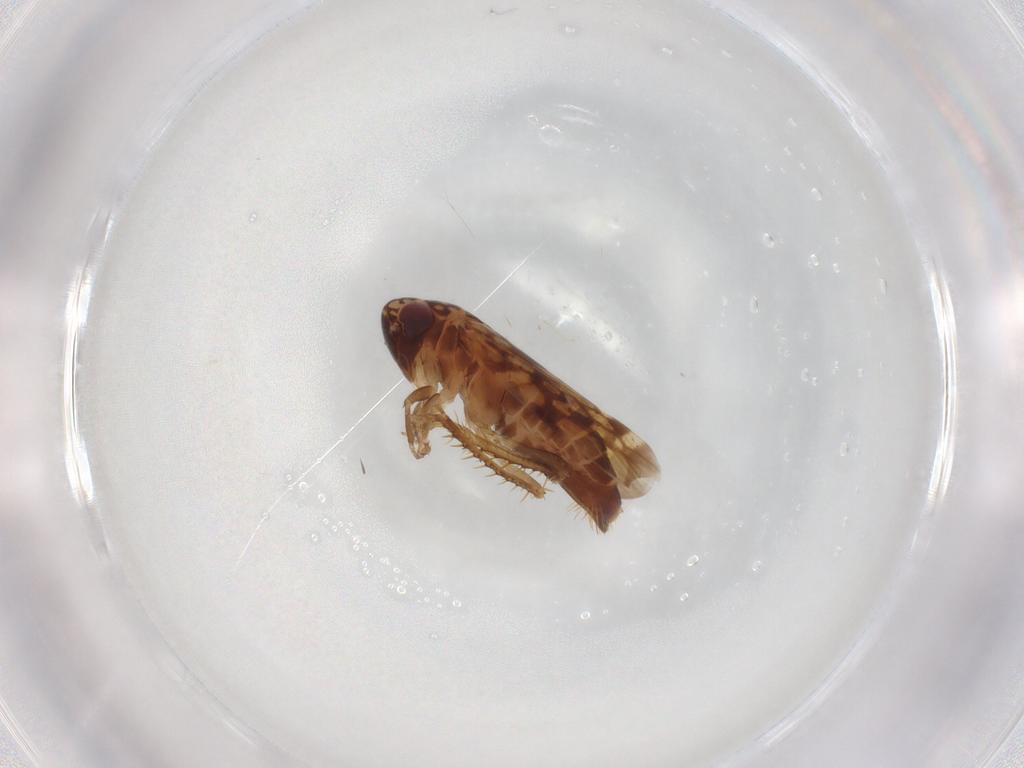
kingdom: Animalia
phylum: Arthropoda
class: Insecta
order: Hemiptera
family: Cicadellidae
